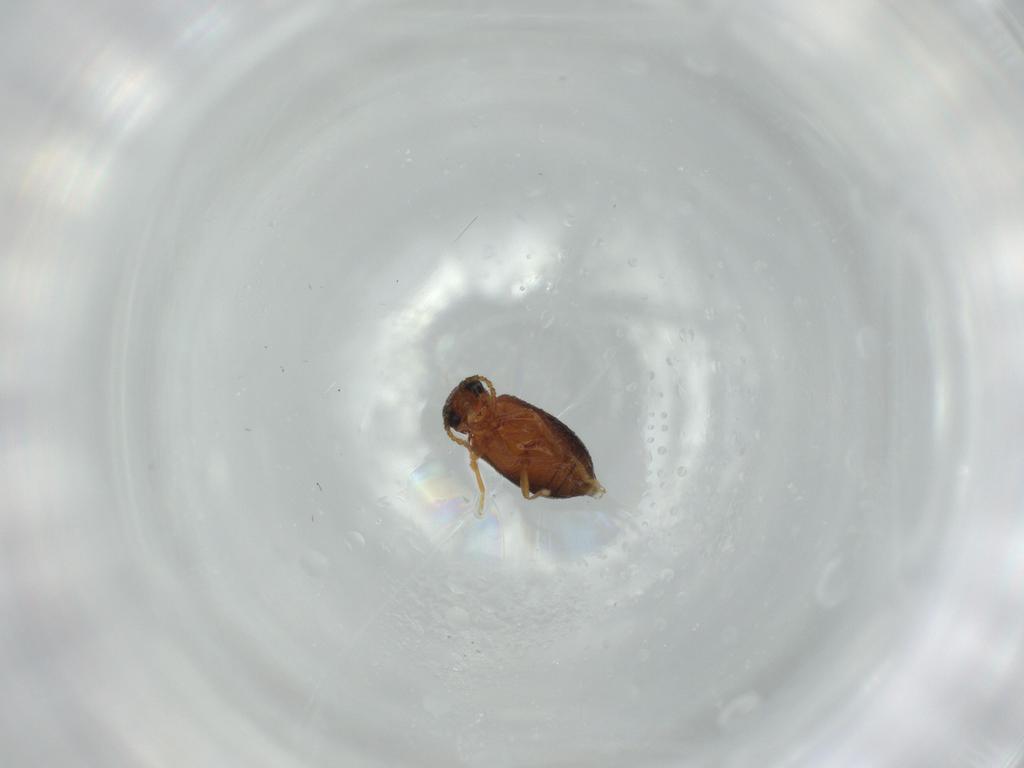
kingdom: Animalia
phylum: Arthropoda
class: Insecta
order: Coleoptera
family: Aderidae
